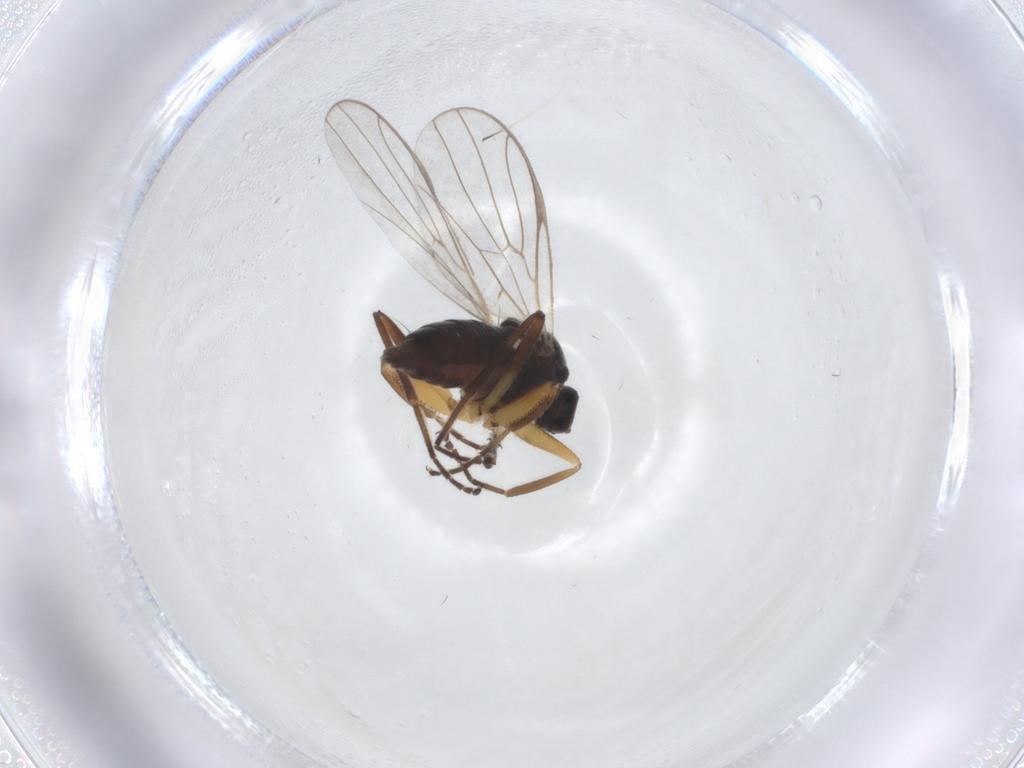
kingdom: Animalia
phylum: Arthropoda
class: Insecta
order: Diptera
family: Hybotidae
